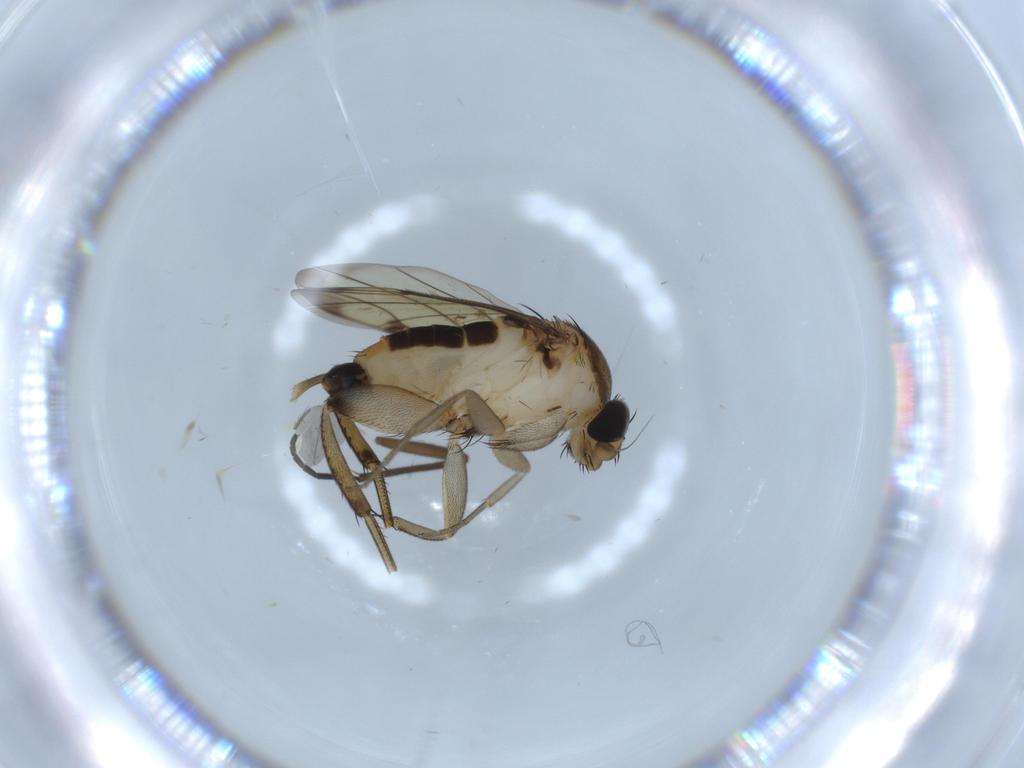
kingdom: Animalia
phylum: Arthropoda
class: Insecta
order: Diptera
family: Phoridae
